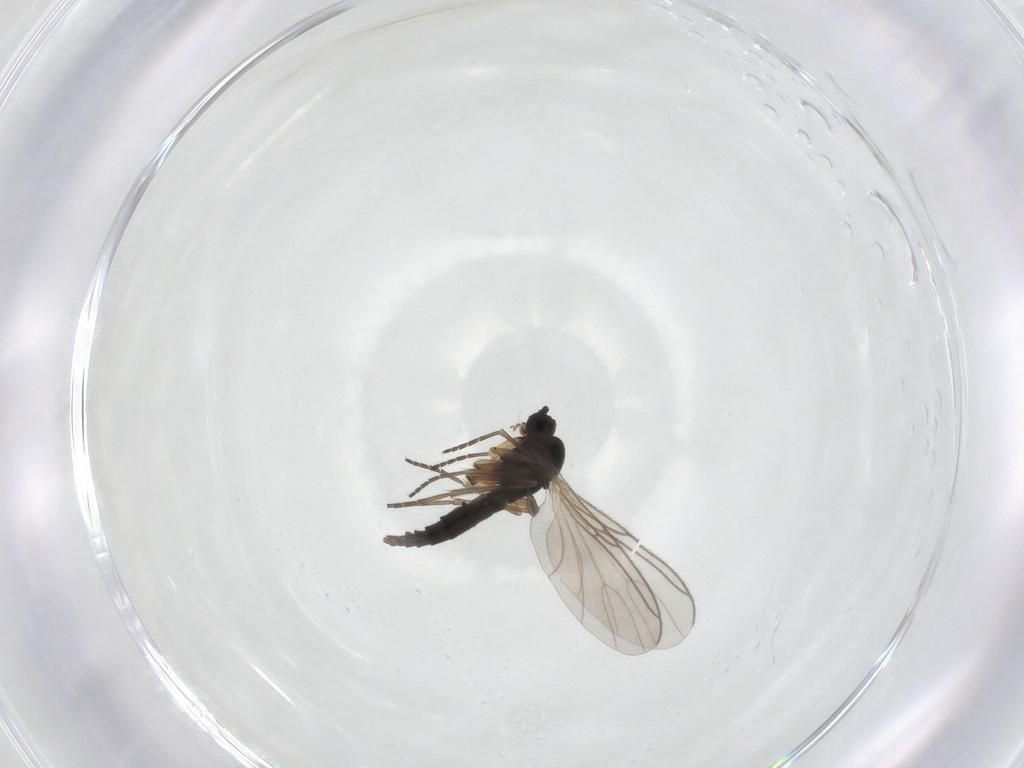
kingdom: Animalia
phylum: Arthropoda
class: Insecta
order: Diptera
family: Sciaridae
